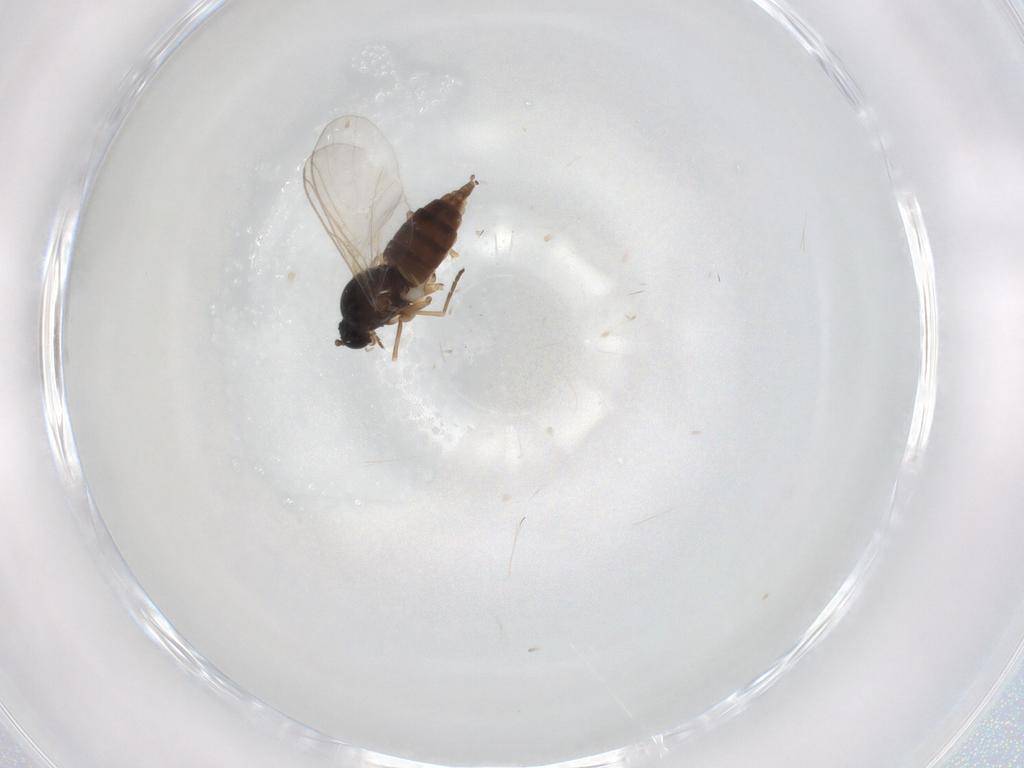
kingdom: Animalia
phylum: Arthropoda
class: Insecta
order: Diptera
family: Sciaridae
